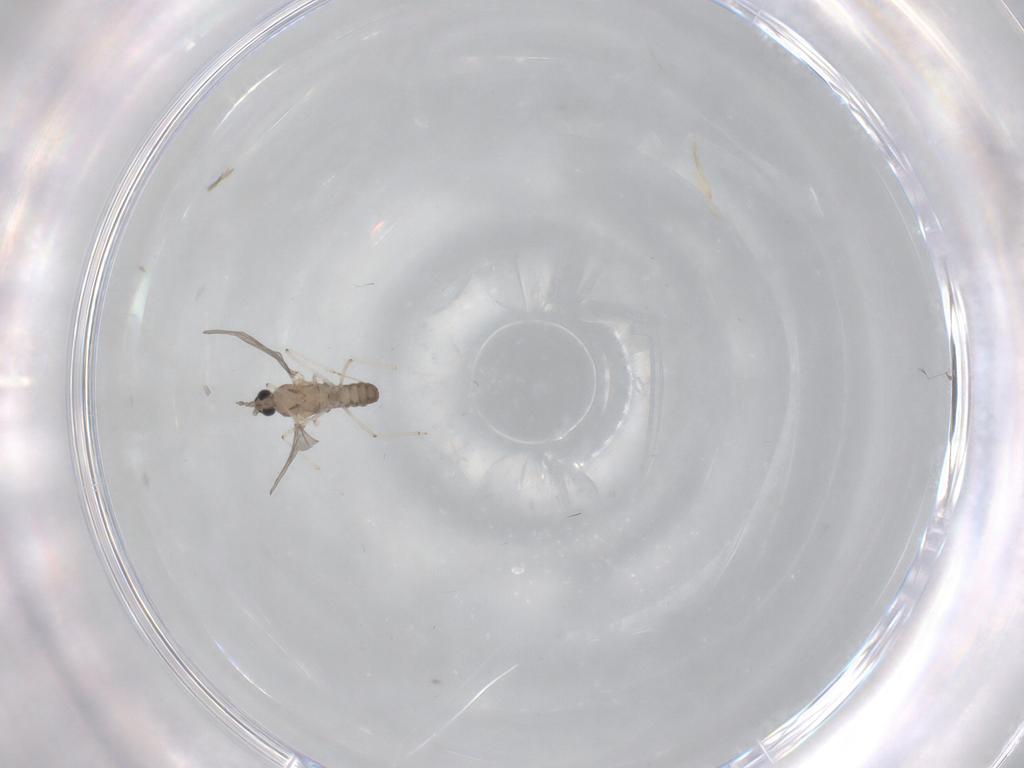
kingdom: Animalia
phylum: Arthropoda
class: Insecta
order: Diptera
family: Cecidomyiidae
